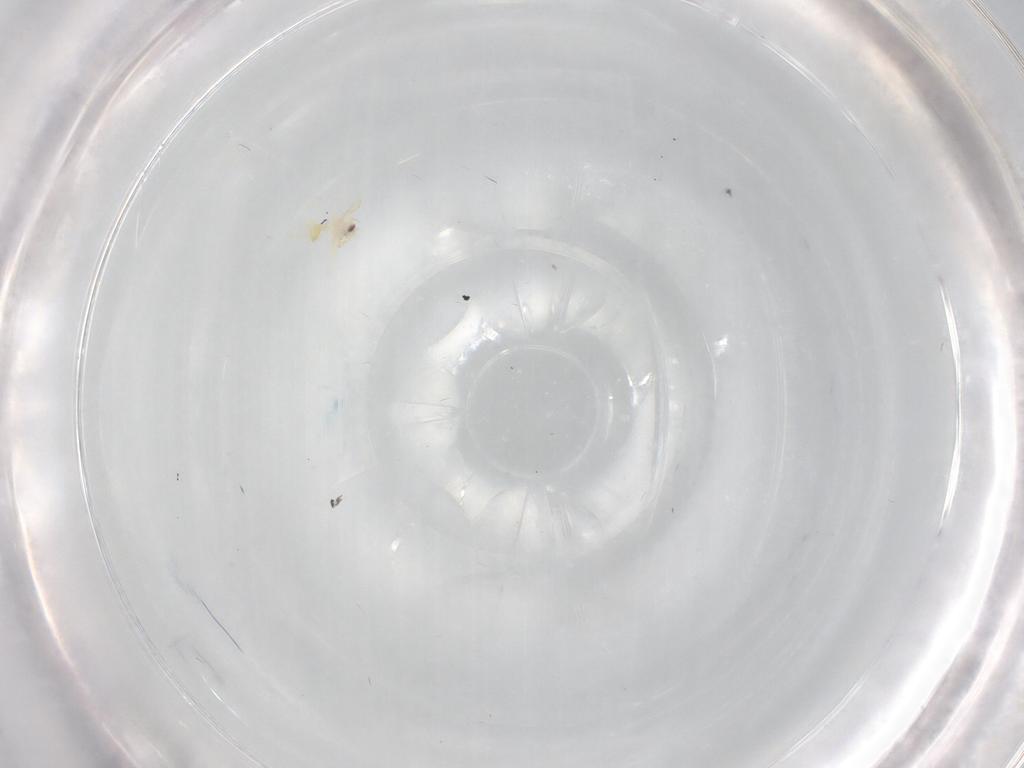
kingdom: Animalia
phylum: Arthropoda
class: Insecta
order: Hemiptera
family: Aleyrodidae
